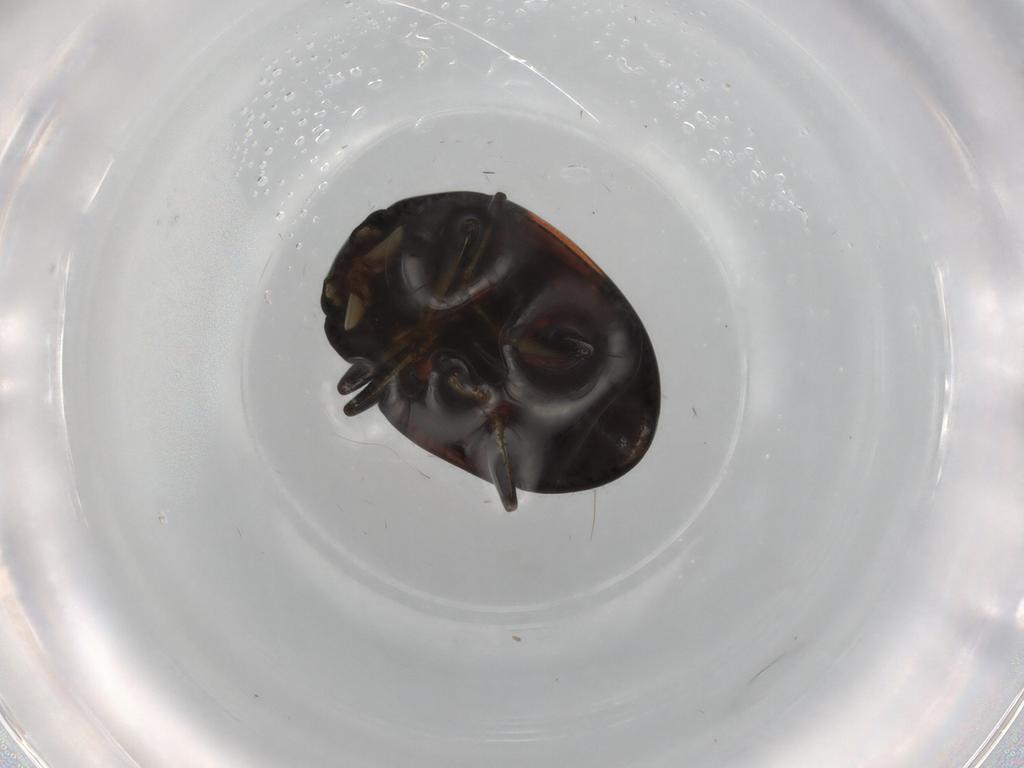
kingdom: Animalia
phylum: Arthropoda
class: Insecta
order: Coleoptera
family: Erotylidae
